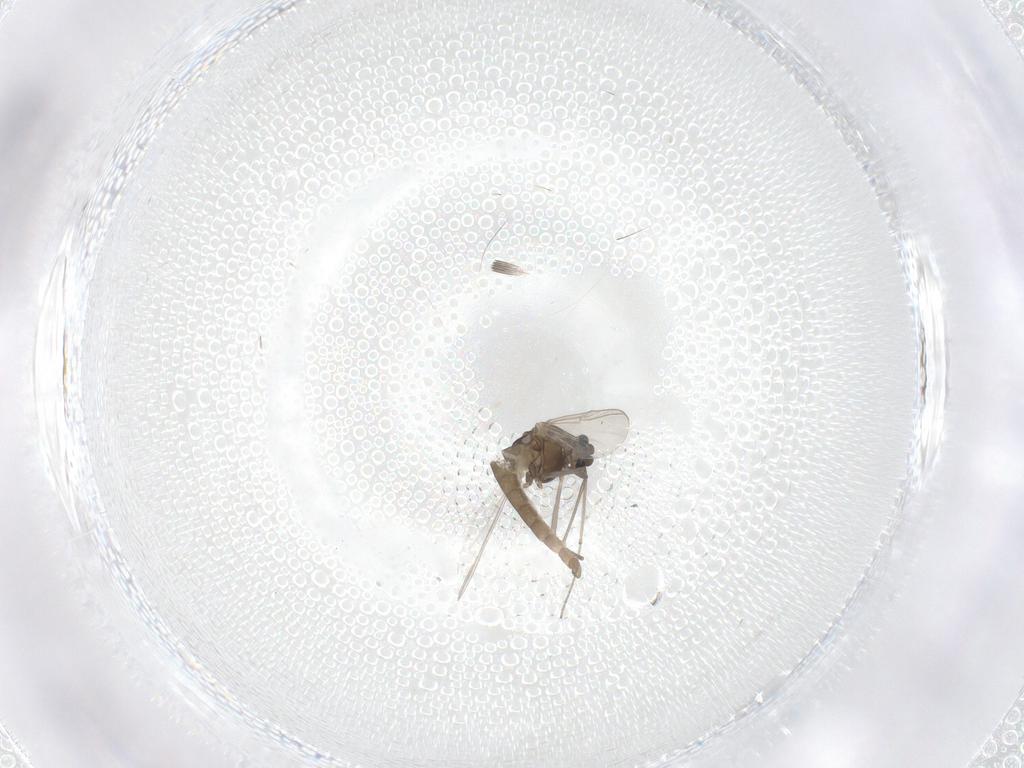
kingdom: Animalia
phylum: Arthropoda
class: Insecta
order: Diptera
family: Chironomidae
